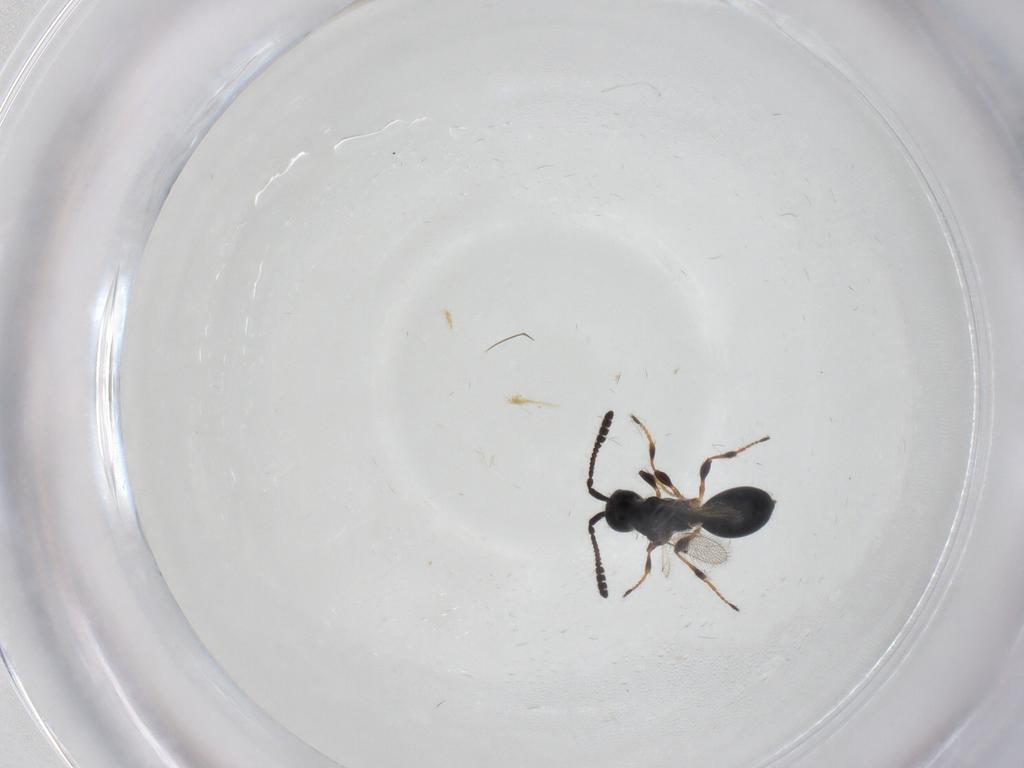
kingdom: Animalia
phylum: Arthropoda
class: Insecta
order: Hymenoptera
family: Diapriidae
